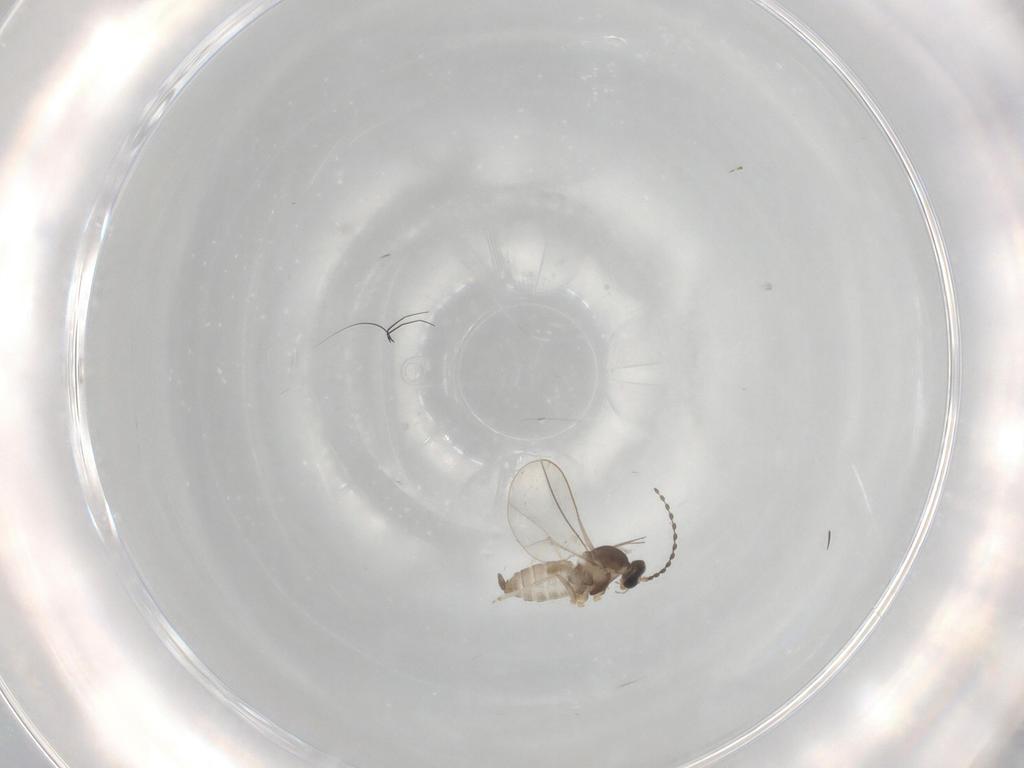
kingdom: Animalia
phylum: Arthropoda
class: Insecta
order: Diptera
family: Cecidomyiidae
